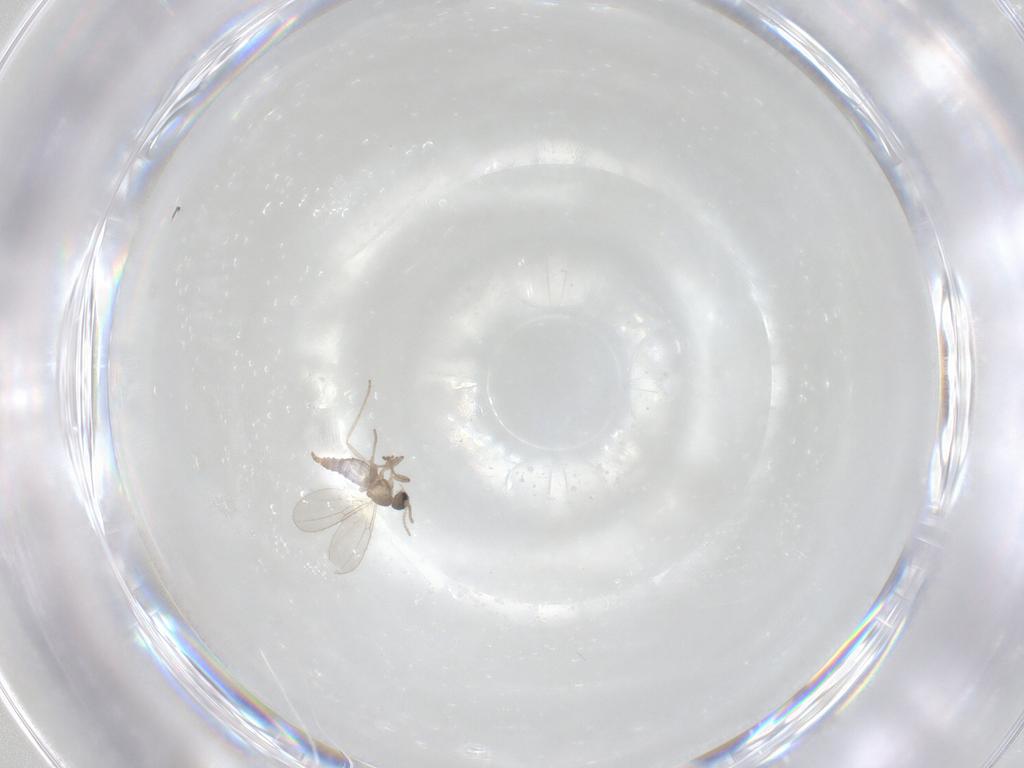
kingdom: Animalia
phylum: Arthropoda
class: Insecta
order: Diptera
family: Cecidomyiidae
